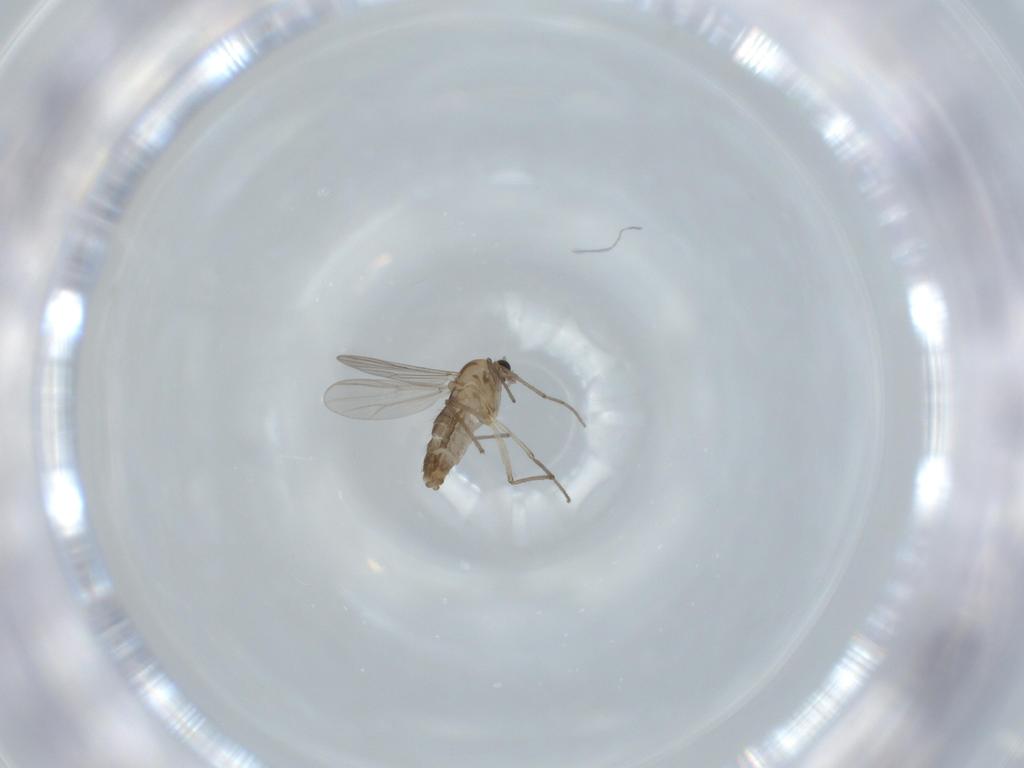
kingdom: Animalia
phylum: Arthropoda
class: Insecta
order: Diptera
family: Chironomidae
